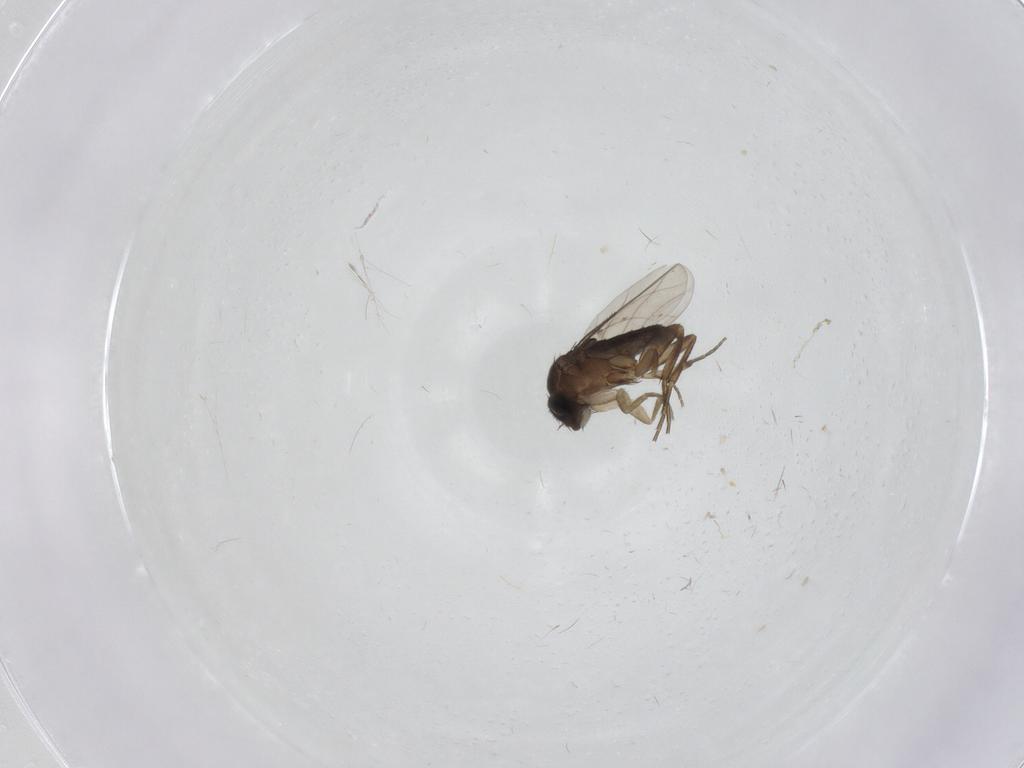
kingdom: Animalia
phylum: Arthropoda
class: Insecta
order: Diptera
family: Phoridae
